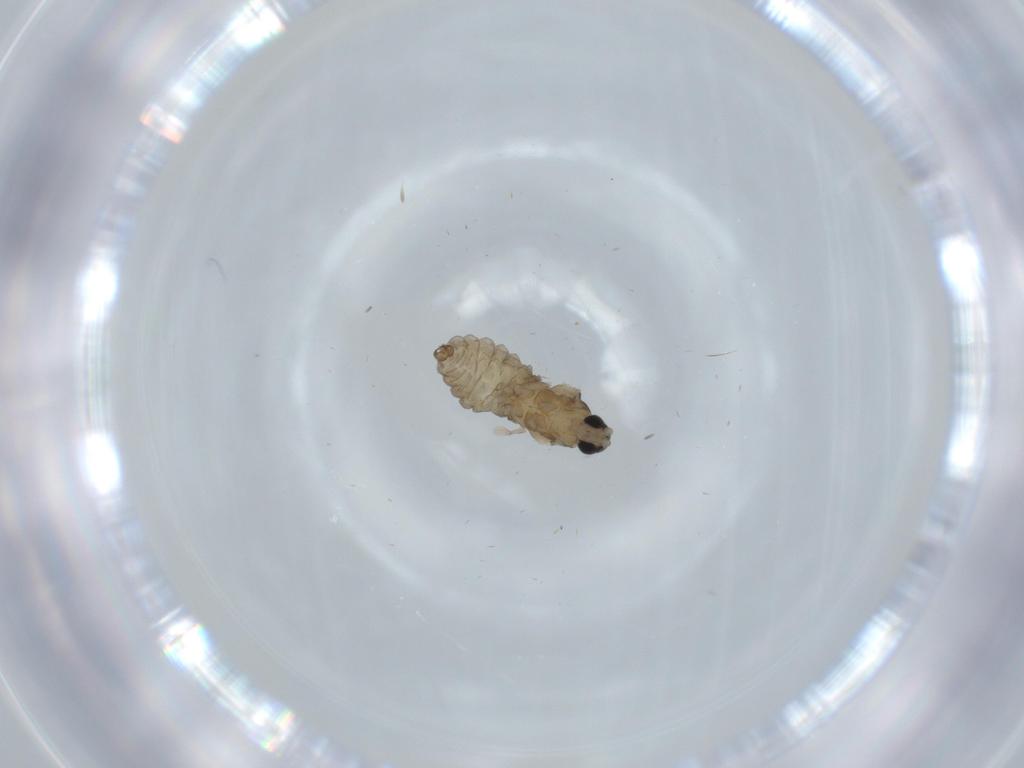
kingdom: Animalia
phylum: Arthropoda
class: Insecta
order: Diptera
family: Cecidomyiidae
